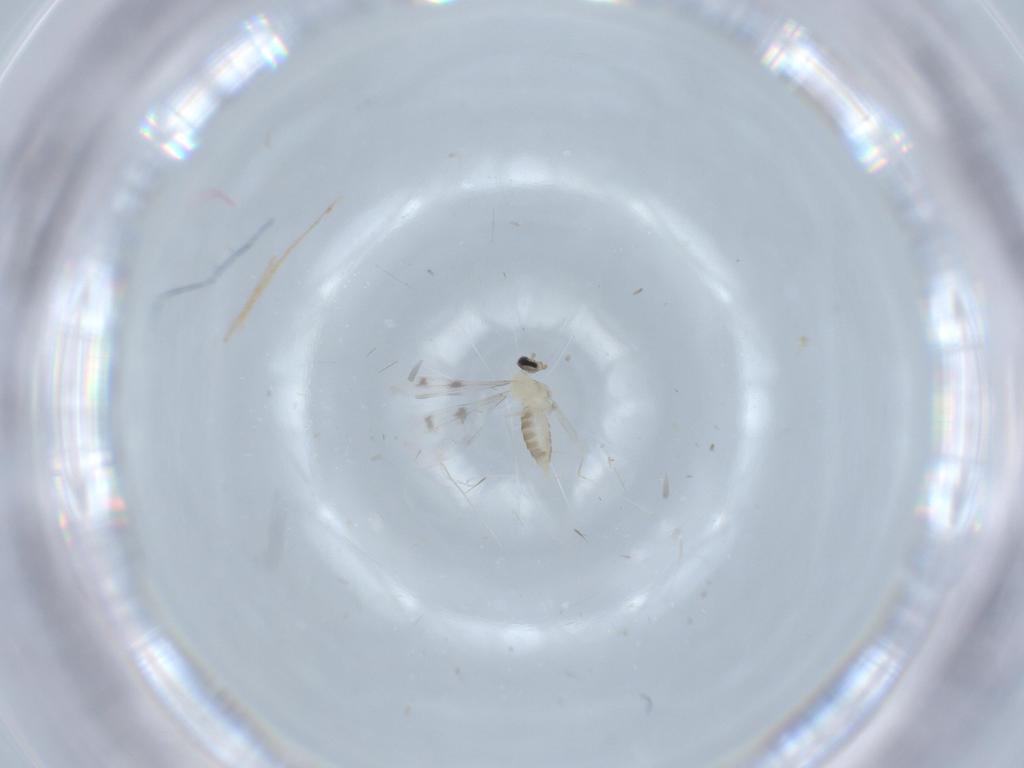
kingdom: Animalia
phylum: Arthropoda
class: Insecta
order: Diptera
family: Cecidomyiidae
